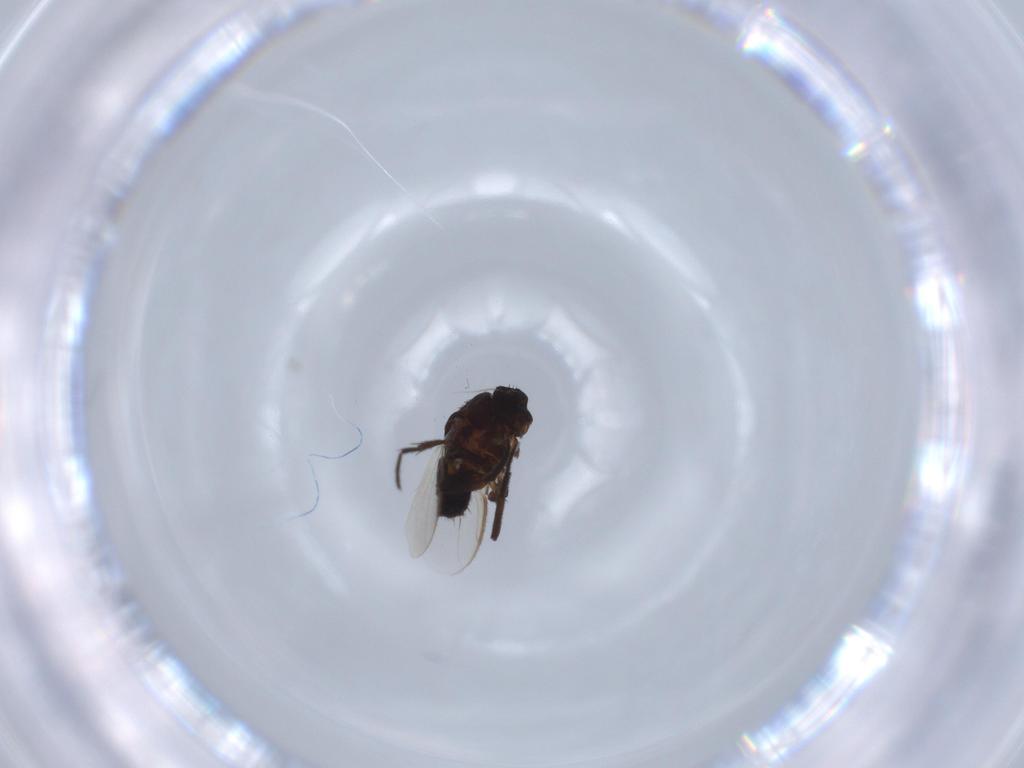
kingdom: Animalia
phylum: Arthropoda
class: Insecta
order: Diptera
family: Sphaeroceridae
